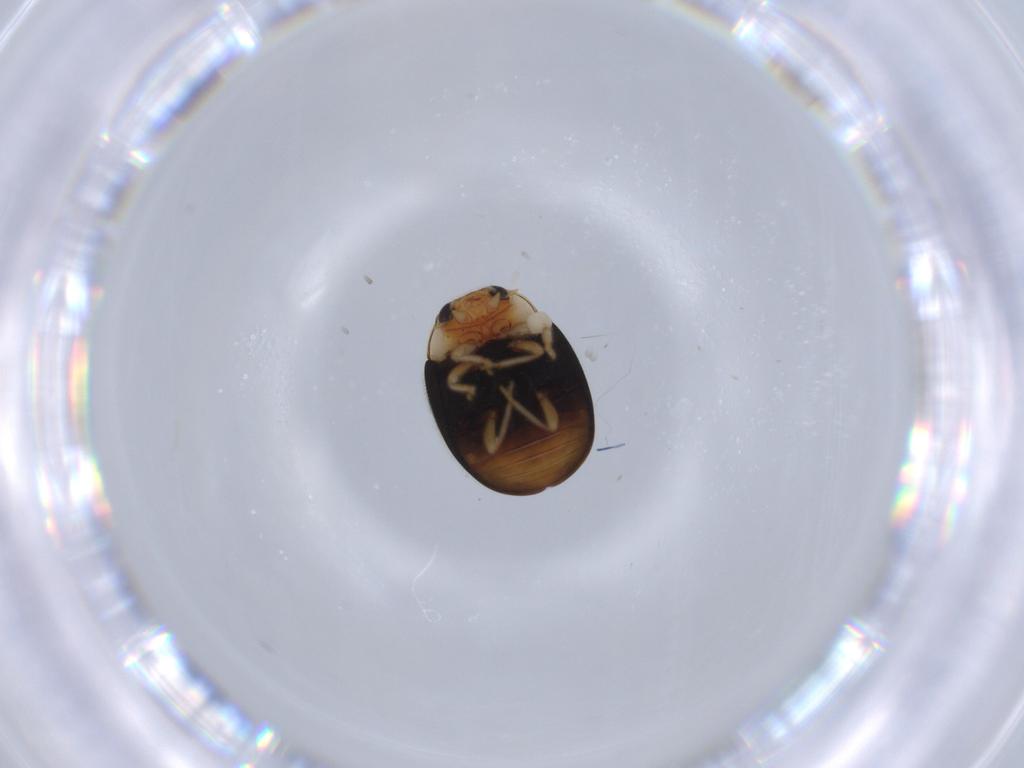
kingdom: Animalia
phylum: Arthropoda
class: Insecta
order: Coleoptera
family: Coccinellidae
